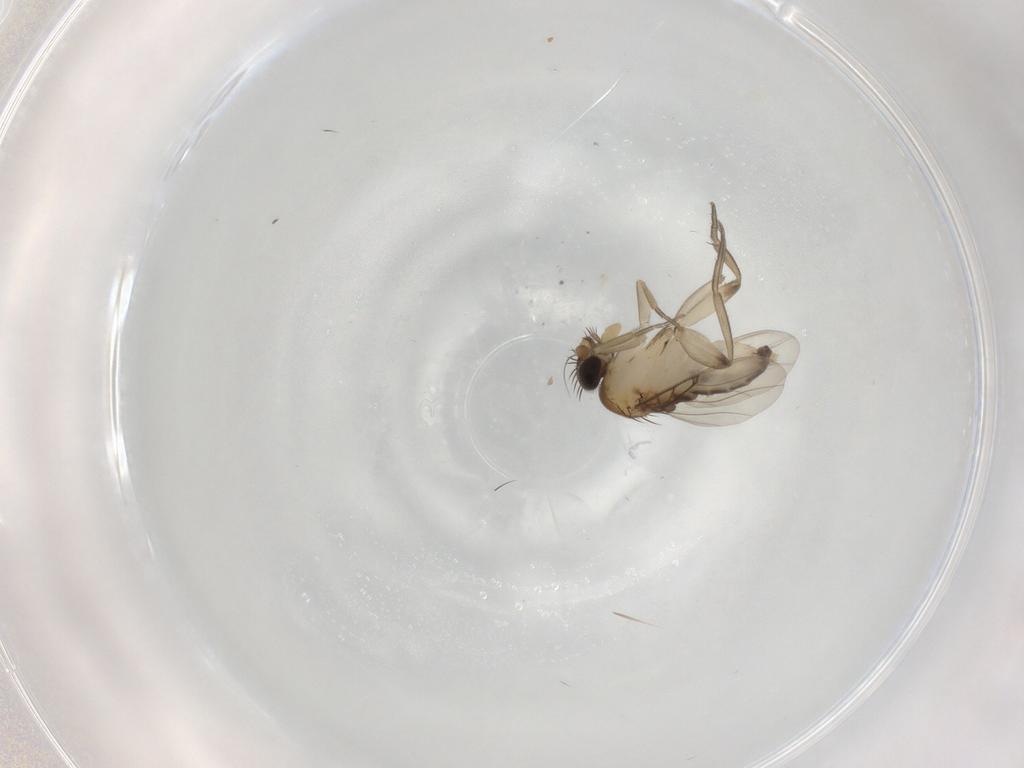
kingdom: Animalia
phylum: Arthropoda
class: Insecta
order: Diptera
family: Phoridae
